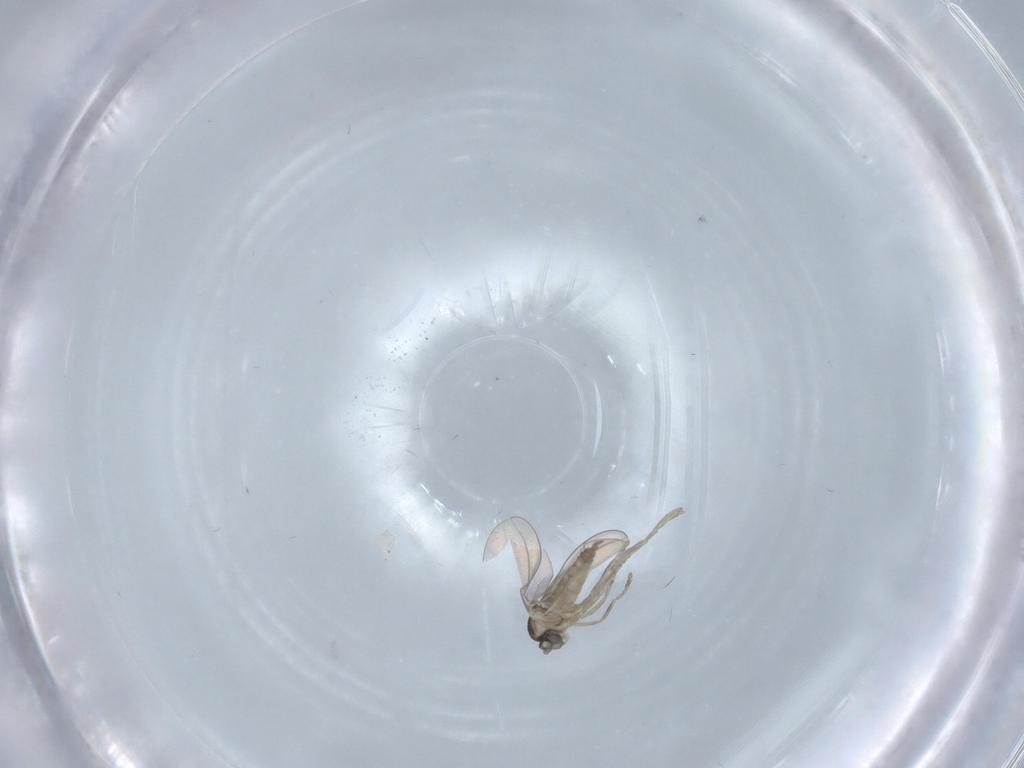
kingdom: Animalia
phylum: Arthropoda
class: Insecta
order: Diptera
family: Cecidomyiidae
